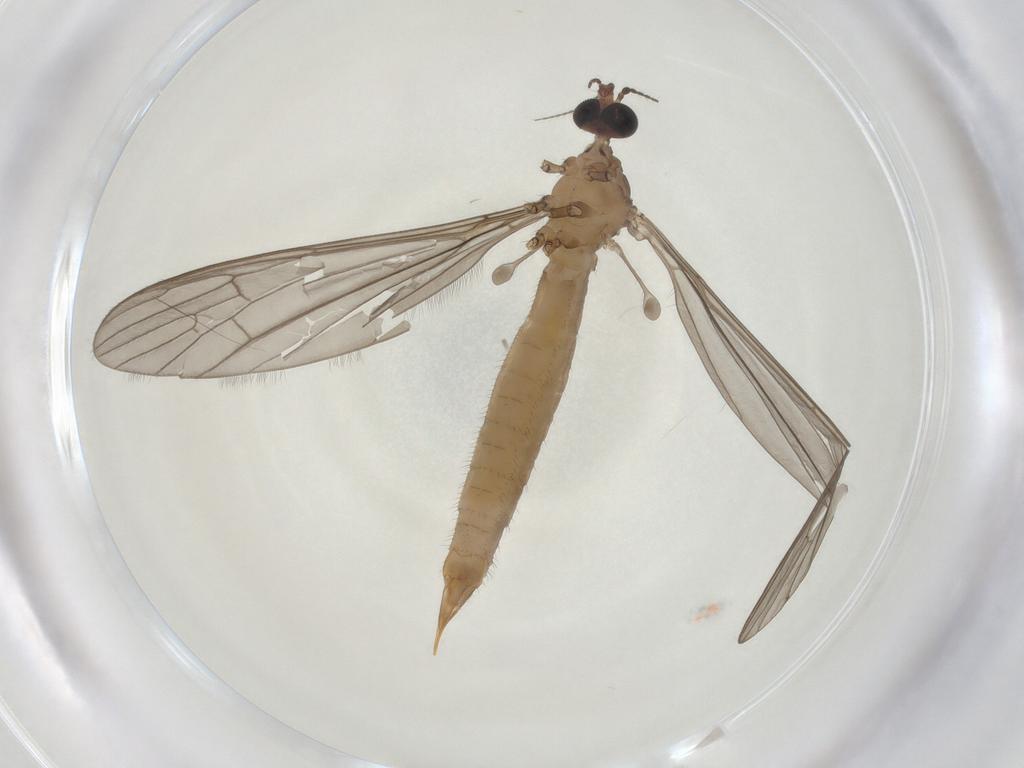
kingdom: Animalia
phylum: Arthropoda
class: Insecta
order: Diptera
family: Limoniidae
